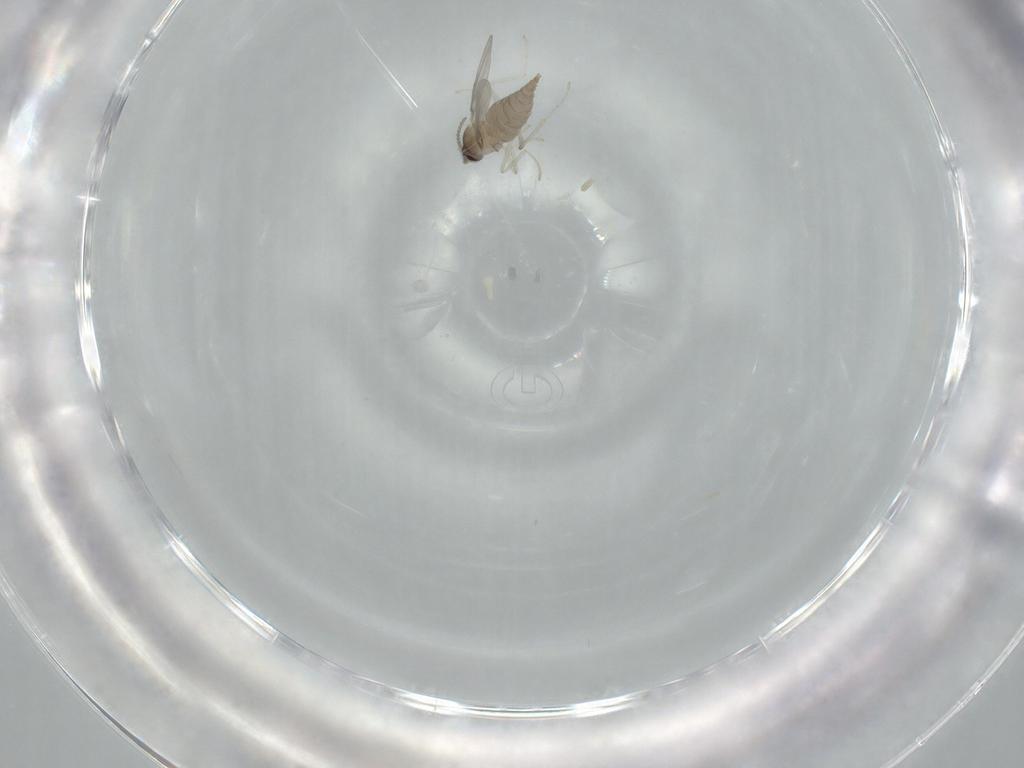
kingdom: Animalia
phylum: Arthropoda
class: Insecta
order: Diptera
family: Cecidomyiidae
